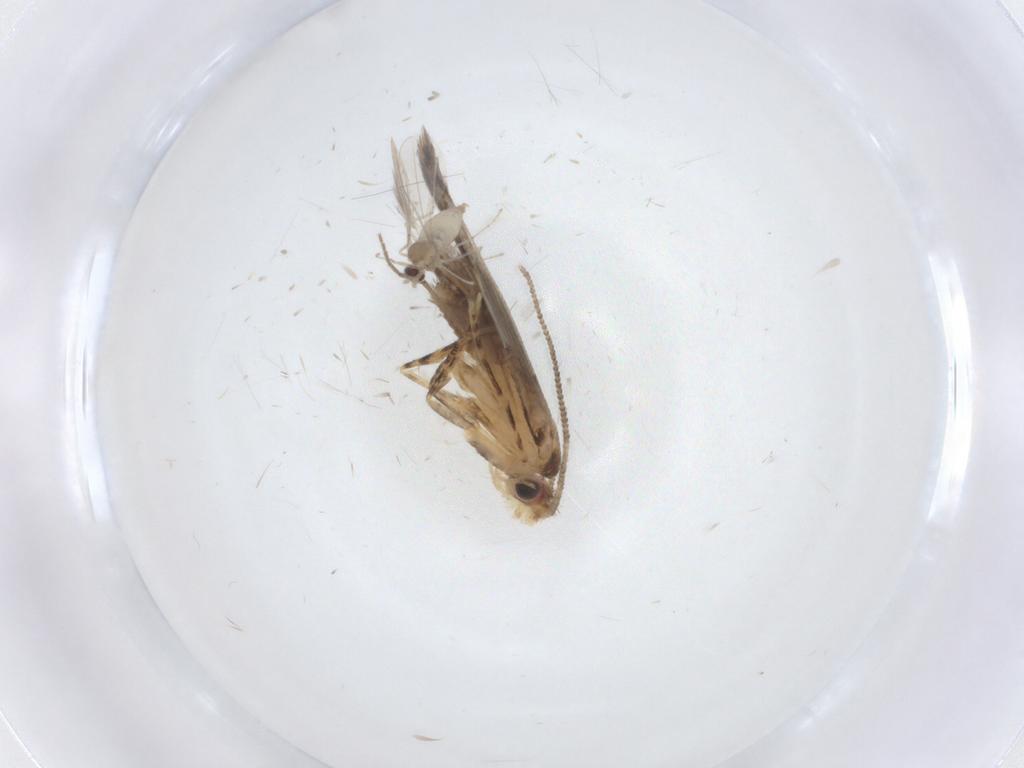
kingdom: Animalia
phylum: Arthropoda
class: Insecta
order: Lepidoptera
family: Tineidae
